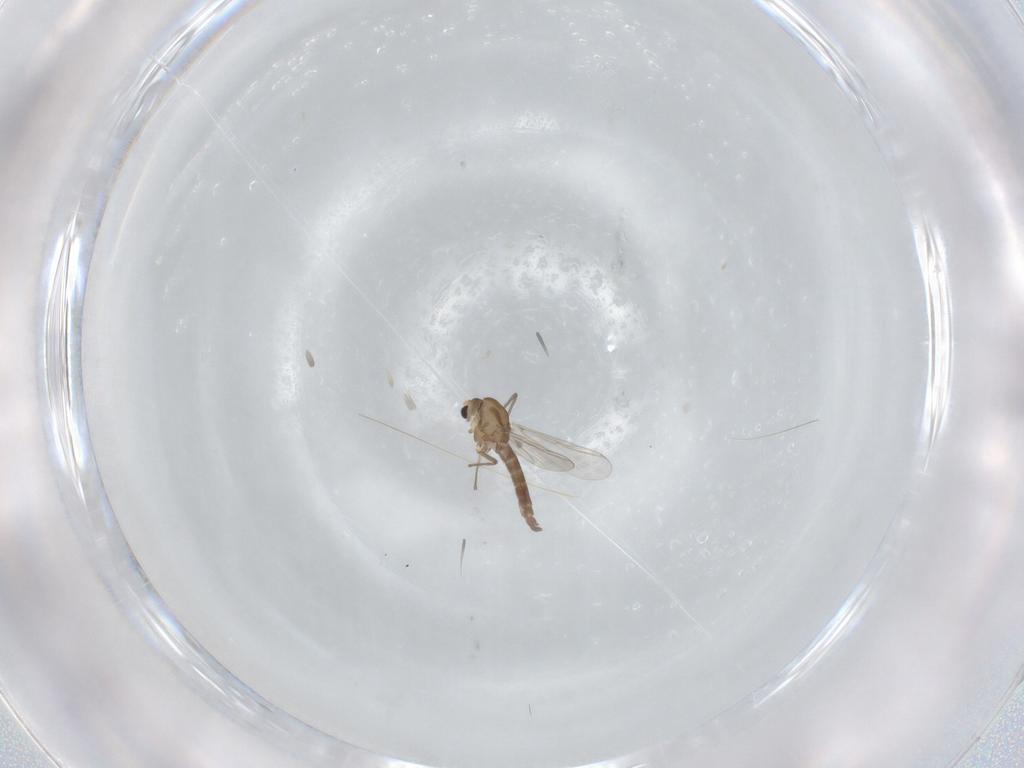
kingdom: Animalia
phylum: Arthropoda
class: Insecta
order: Diptera
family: Chironomidae
